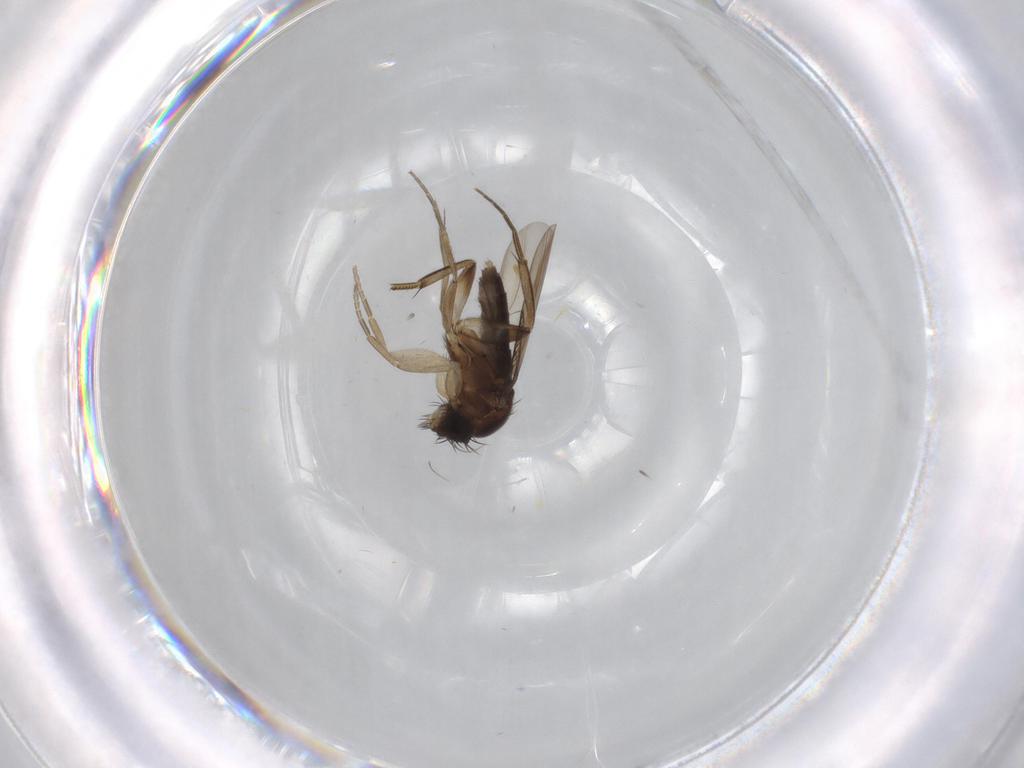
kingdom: Animalia
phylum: Arthropoda
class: Insecta
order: Diptera
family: Phoridae
